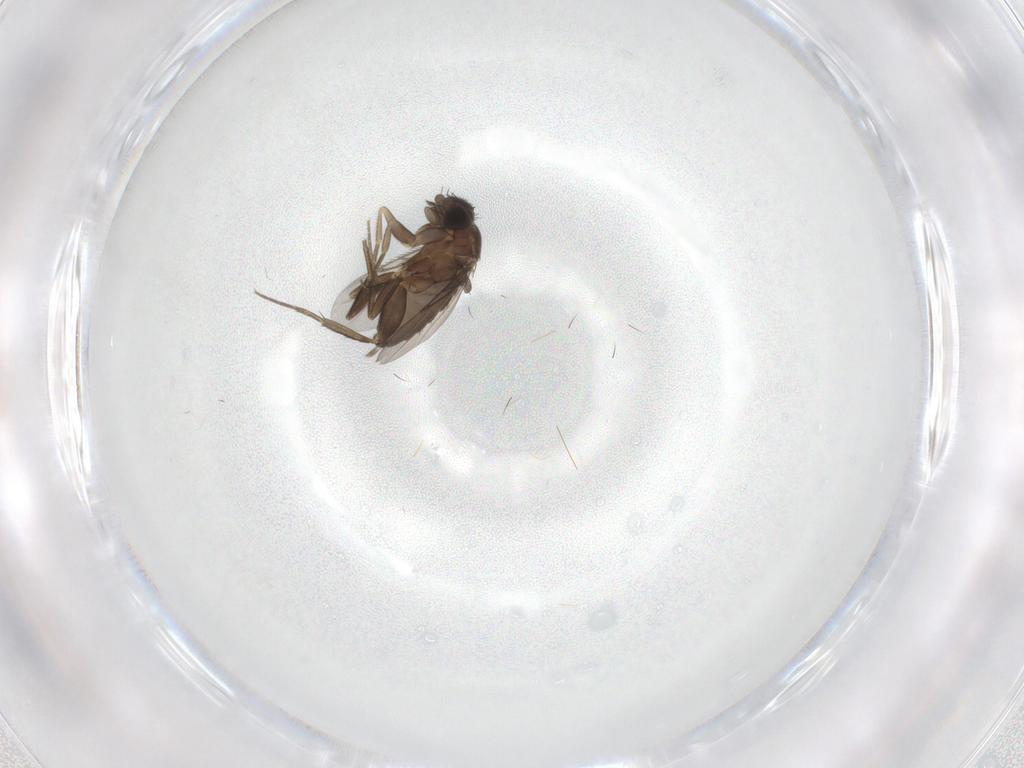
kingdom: Animalia
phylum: Arthropoda
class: Insecta
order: Diptera
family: Phoridae
